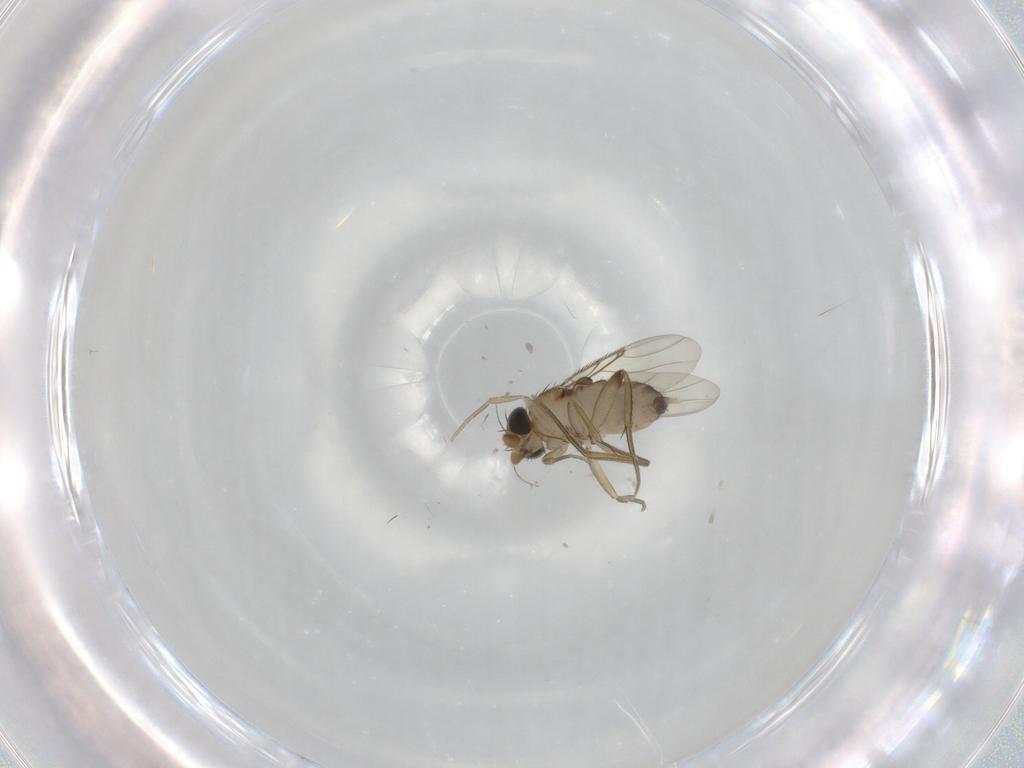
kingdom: Animalia
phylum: Arthropoda
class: Insecta
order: Diptera
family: Phoridae
